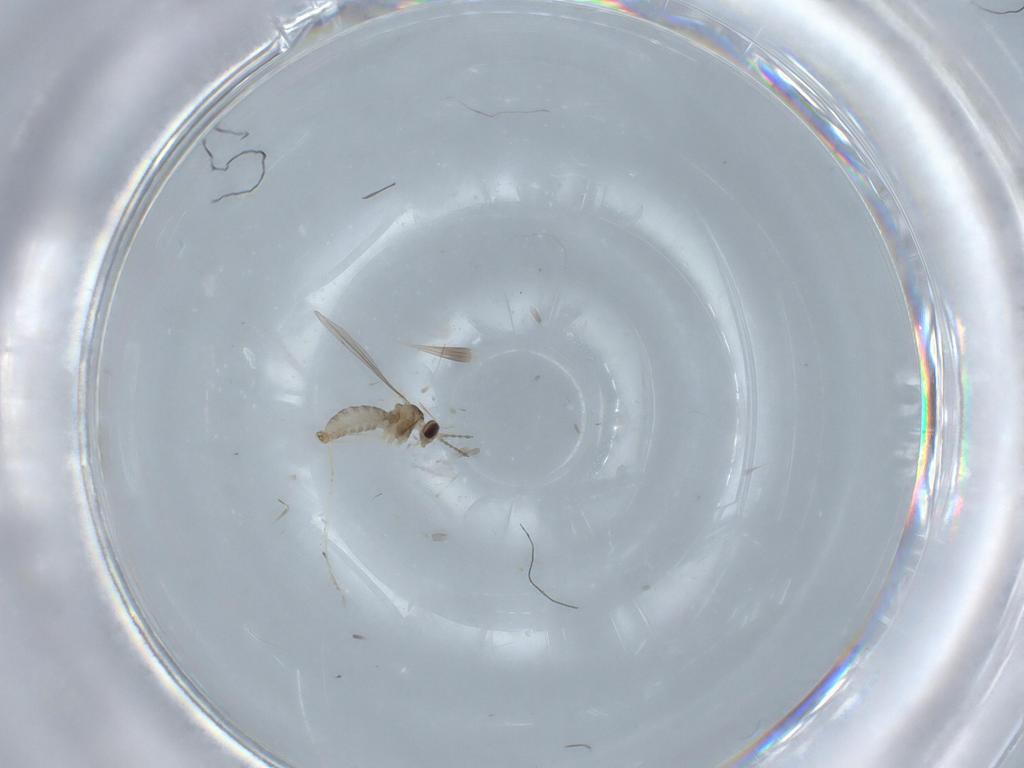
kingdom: Animalia
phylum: Arthropoda
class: Insecta
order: Diptera
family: Cecidomyiidae
